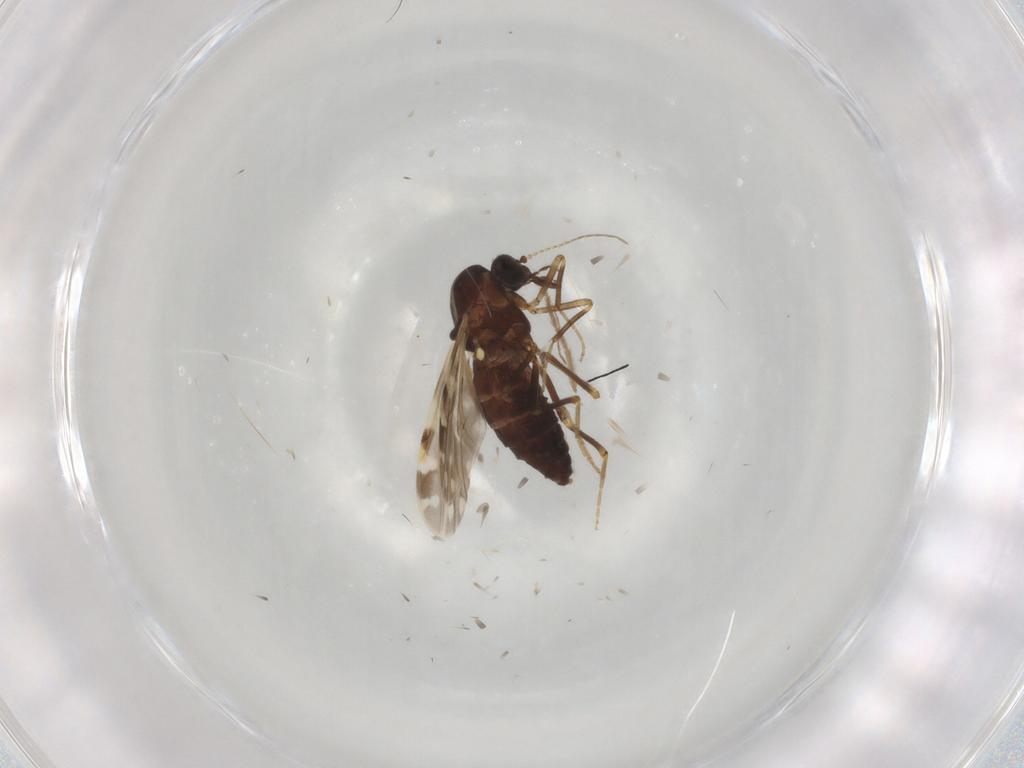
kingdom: Animalia
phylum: Arthropoda
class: Insecta
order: Diptera
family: Chironomidae
